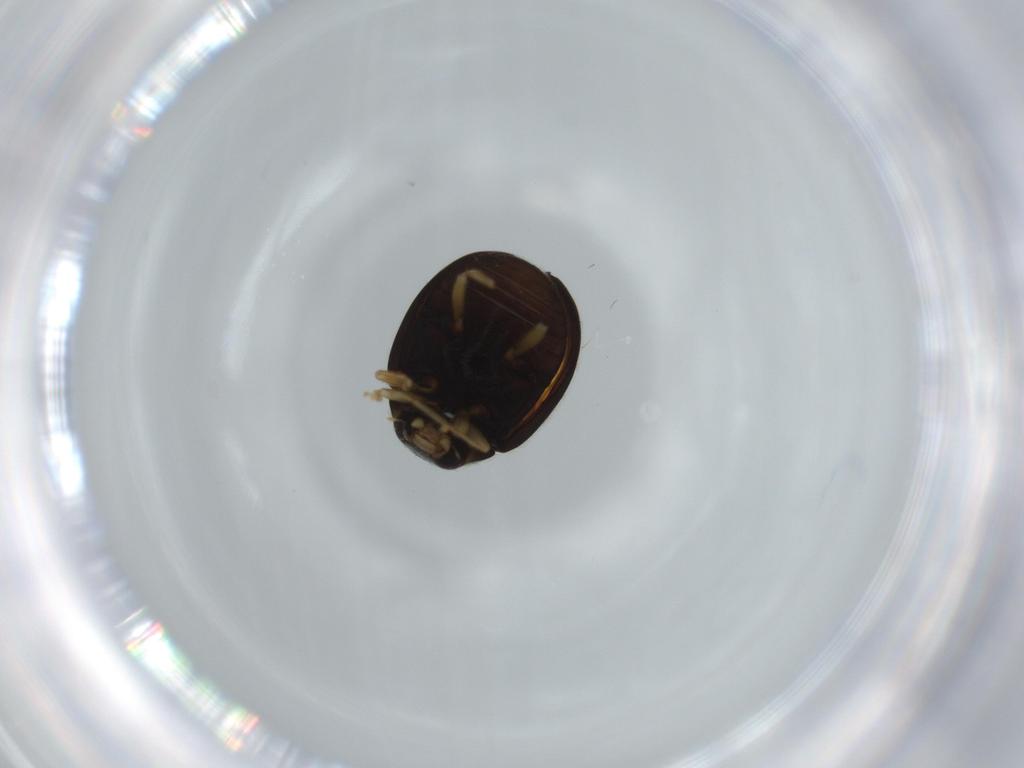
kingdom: Animalia
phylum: Arthropoda
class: Insecta
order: Coleoptera
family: Coccinellidae
